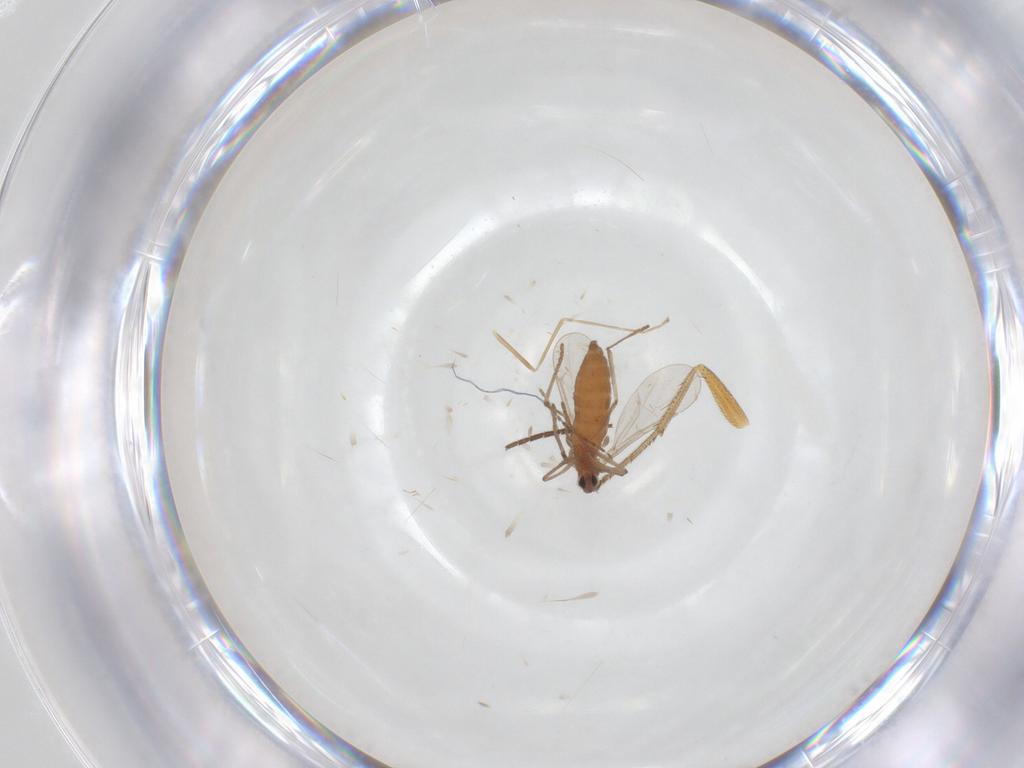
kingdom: Animalia
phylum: Arthropoda
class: Insecta
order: Diptera
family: Cecidomyiidae
